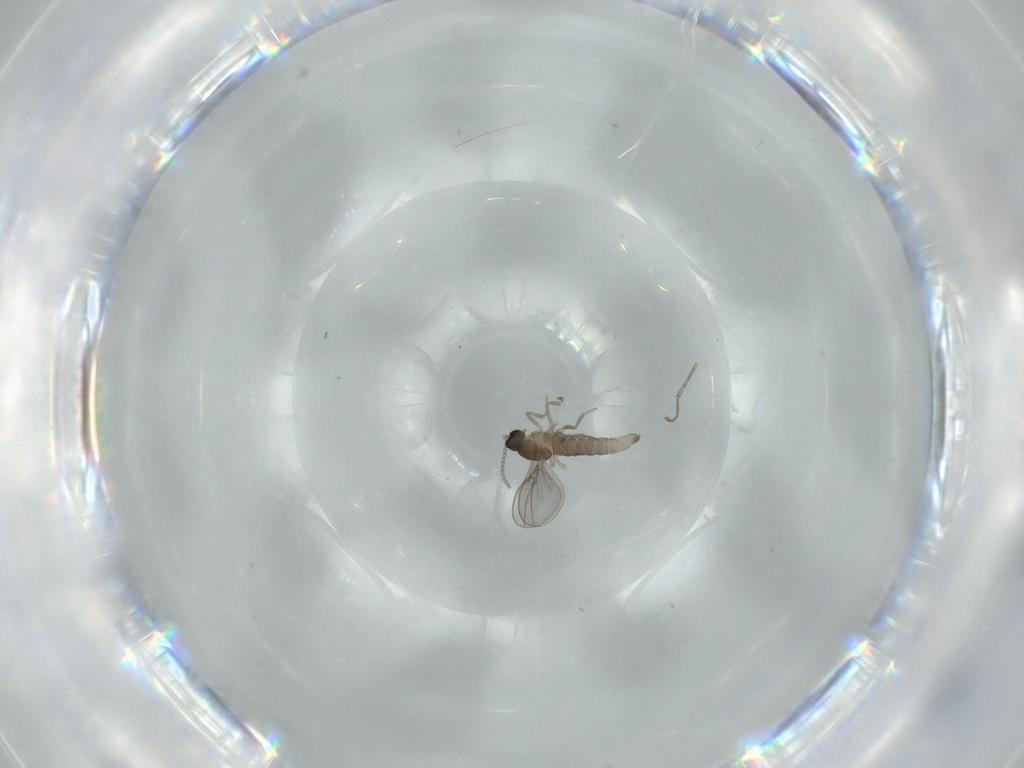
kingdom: Animalia
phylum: Arthropoda
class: Insecta
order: Diptera
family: Cecidomyiidae
